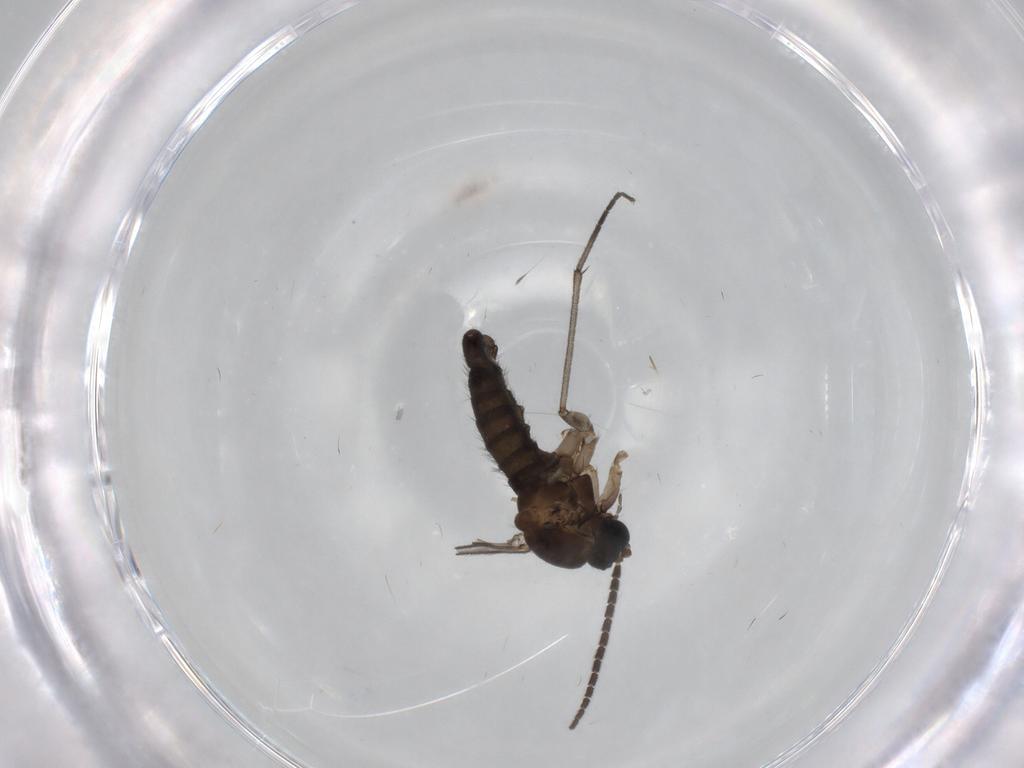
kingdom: Animalia
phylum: Arthropoda
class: Insecta
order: Diptera
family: Sciaridae
